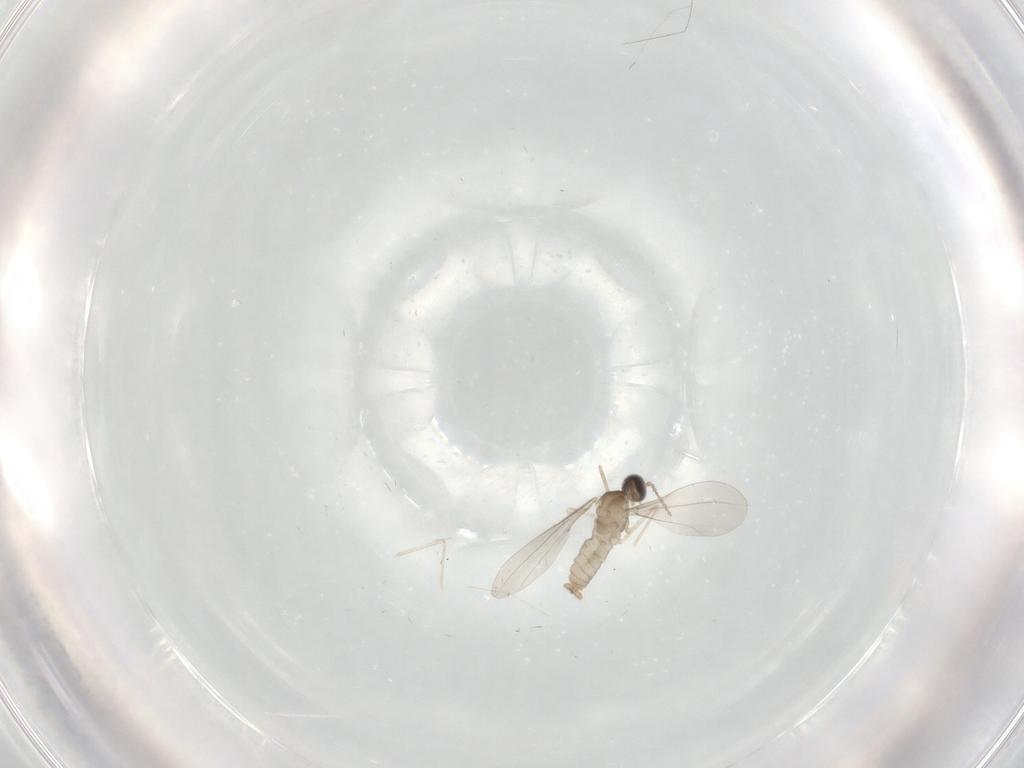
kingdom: Animalia
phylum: Arthropoda
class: Insecta
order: Diptera
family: Cecidomyiidae
